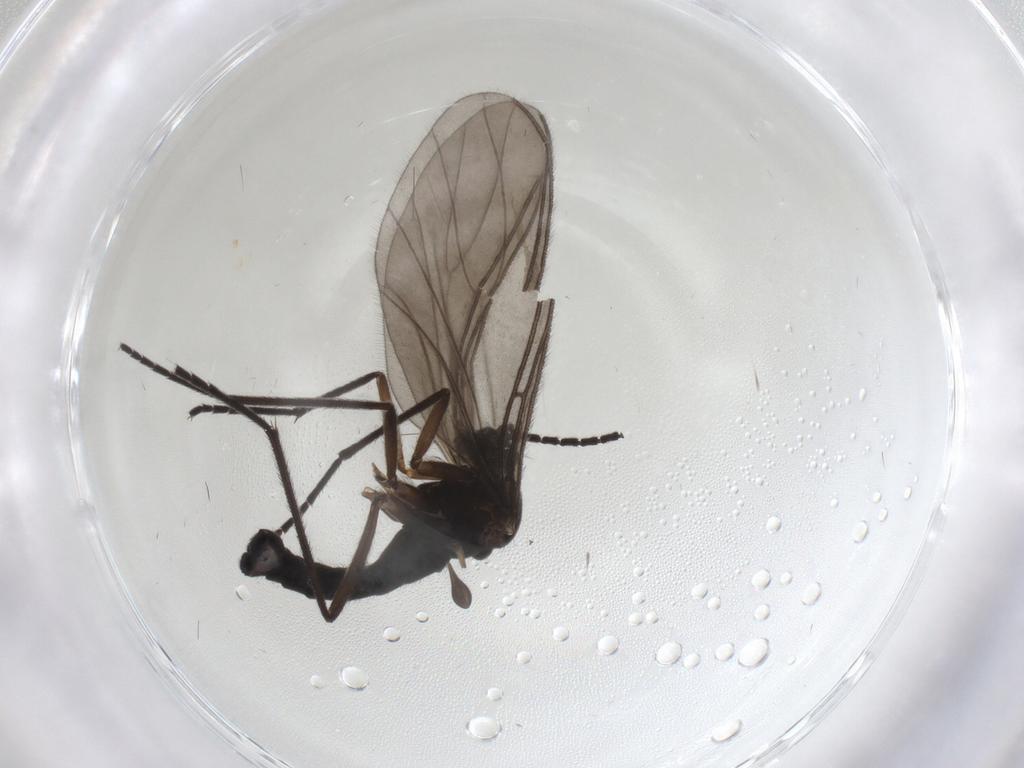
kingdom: Animalia
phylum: Arthropoda
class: Insecta
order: Diptera
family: Sciaridae
